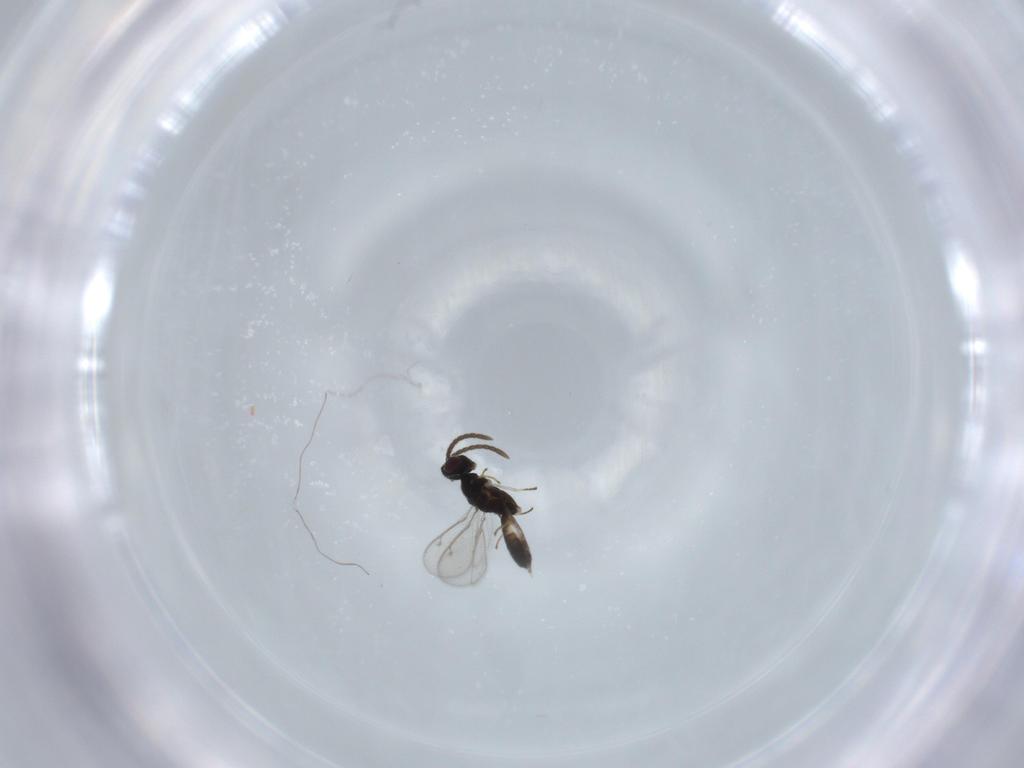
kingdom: Animalia
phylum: Arthropoda
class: Insecta
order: Hymenoptera
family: Eupelmidae
